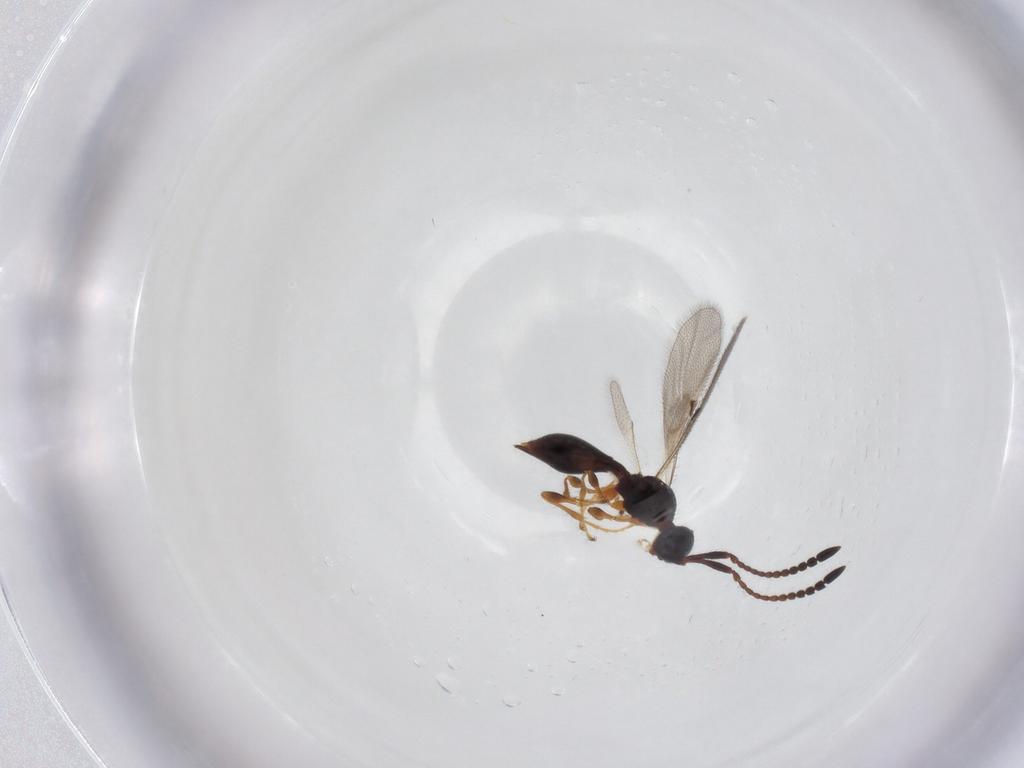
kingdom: Animalia
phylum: Arthropoda
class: Insecta
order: Hymenoptera
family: Diapriidae
